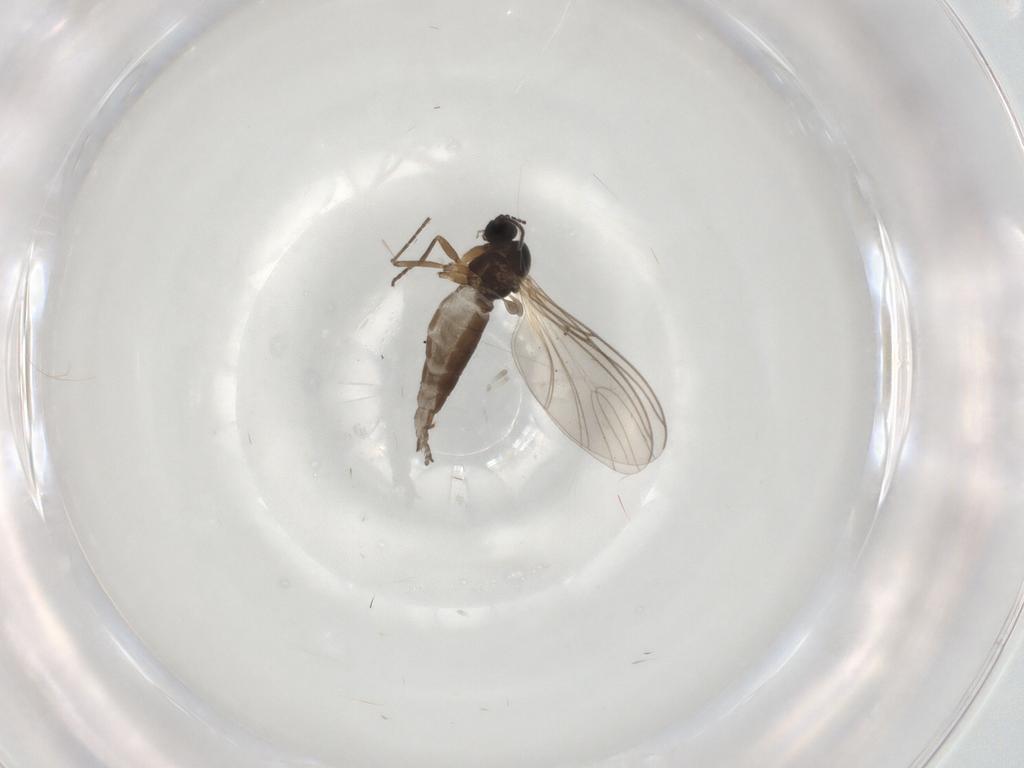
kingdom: Animalia
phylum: Arthropoda
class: Insecta
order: Diptera
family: Sciaridae
